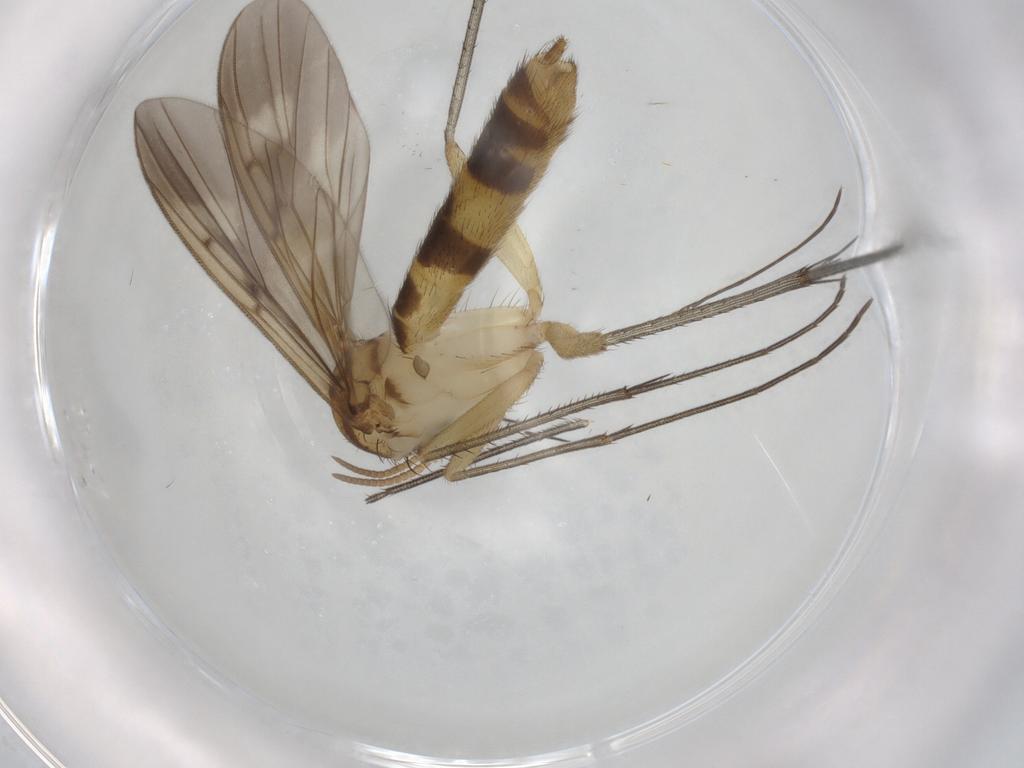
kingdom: Animalia
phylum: Arthropoda
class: Insecta
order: Diptera
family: Mycetophilidae
